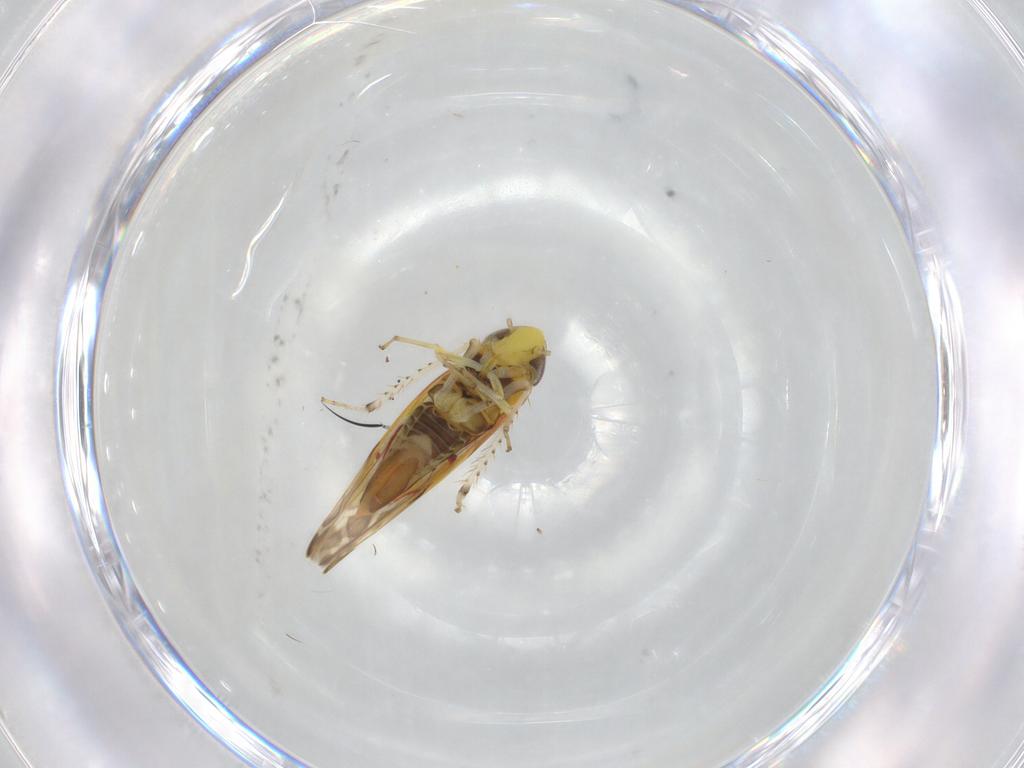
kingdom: Animalia
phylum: Arthropoda
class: Insecta
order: Hemiptera
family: Cicadellidae
